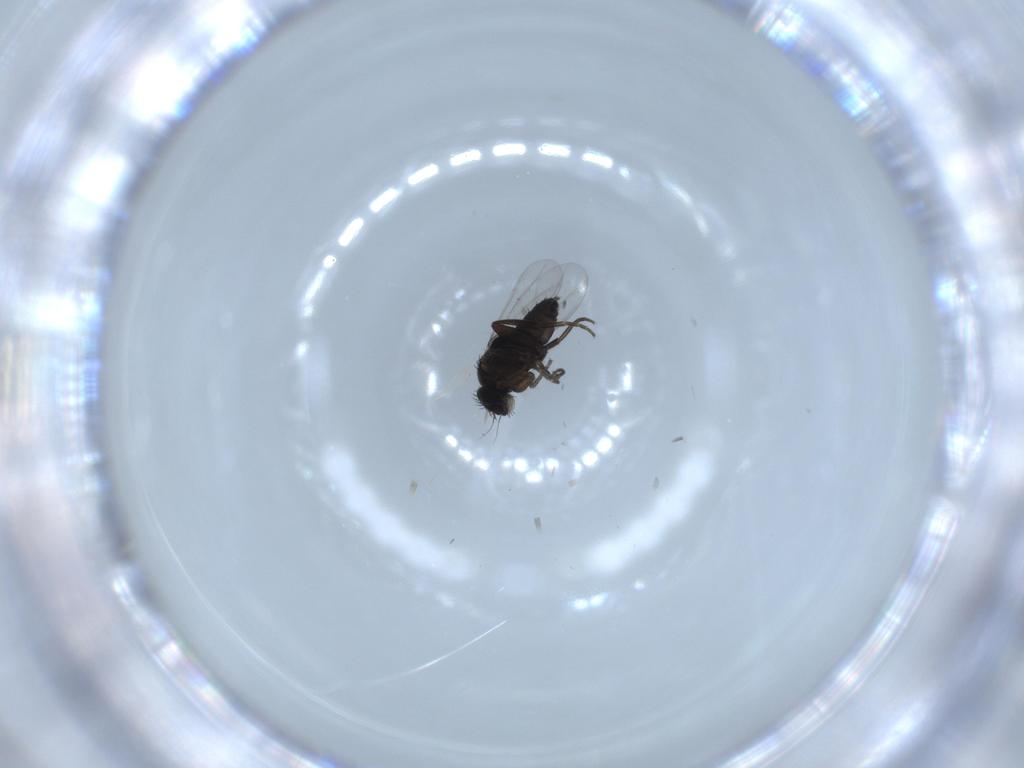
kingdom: Animalia
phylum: Arthropoda
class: Insecta
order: Diptera
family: Phoridae
